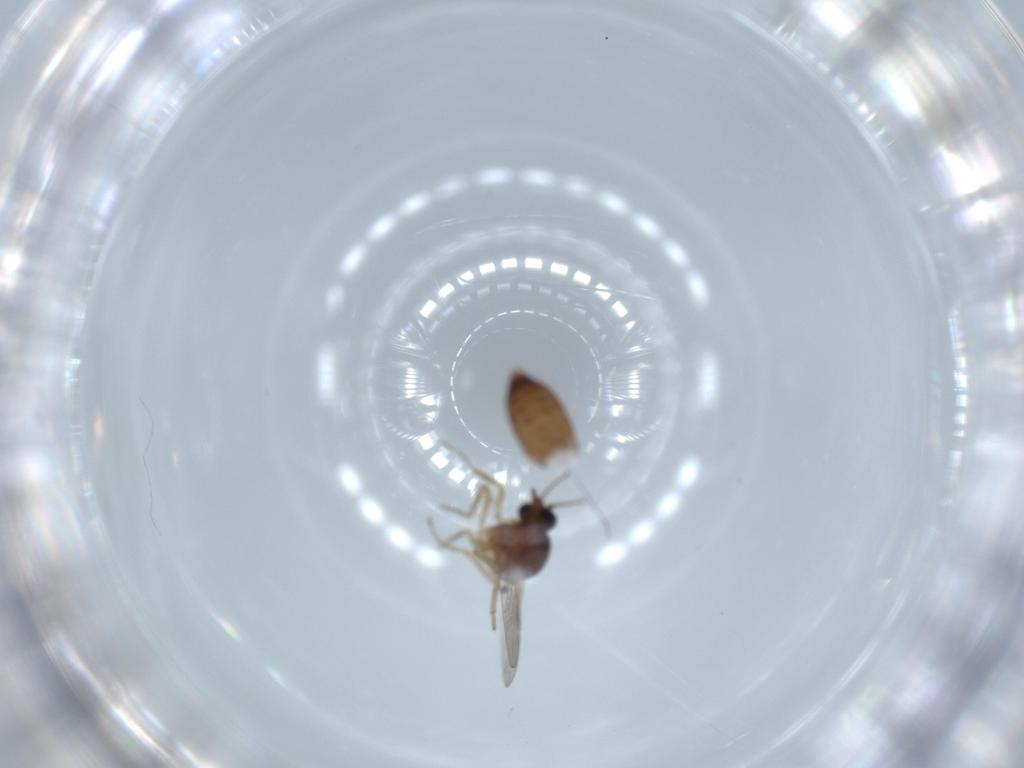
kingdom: Animalia
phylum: Arthropoda
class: Insecta
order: Diptera
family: Ceratopogonidae
